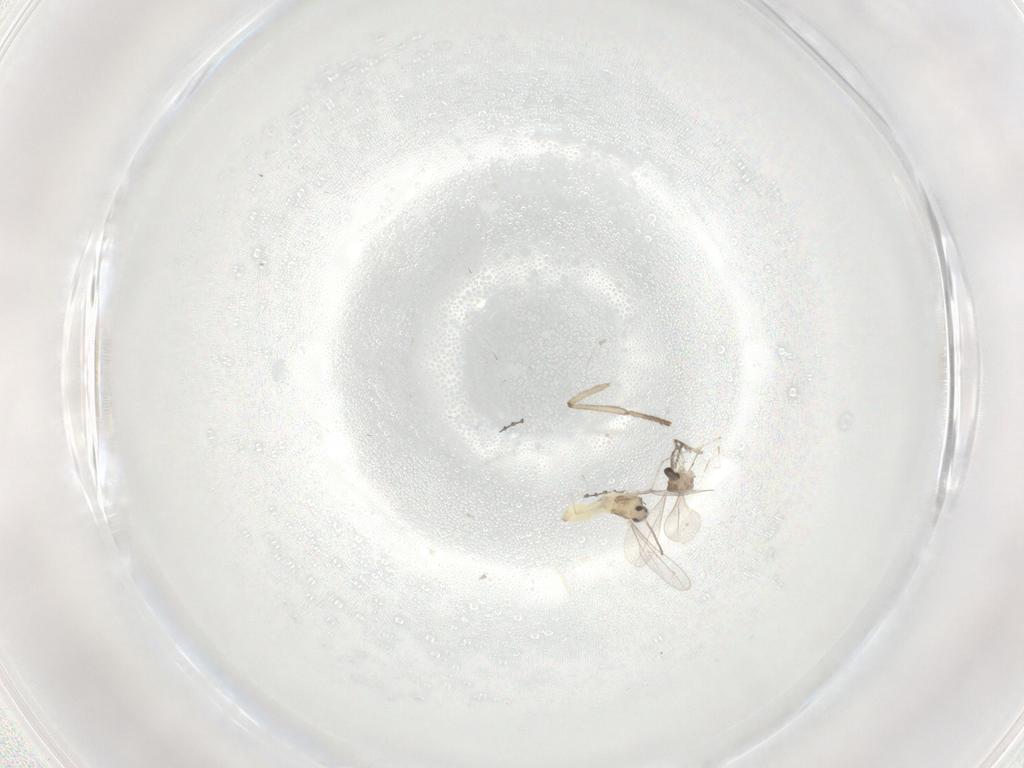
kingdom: Animalia
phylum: Arthropoda
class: Insecta
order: Diptera
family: Cecidomyiidae
